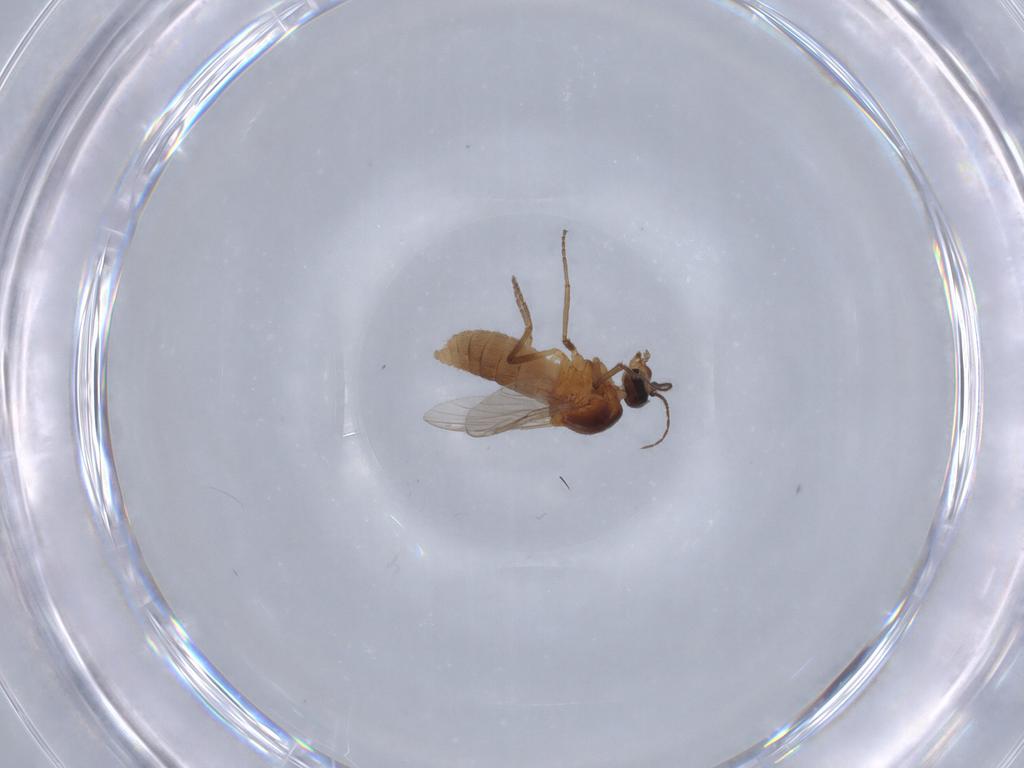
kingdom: Animalia
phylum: Arthropoda
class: Insecta
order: Diptera
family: Ceratopogonidae
